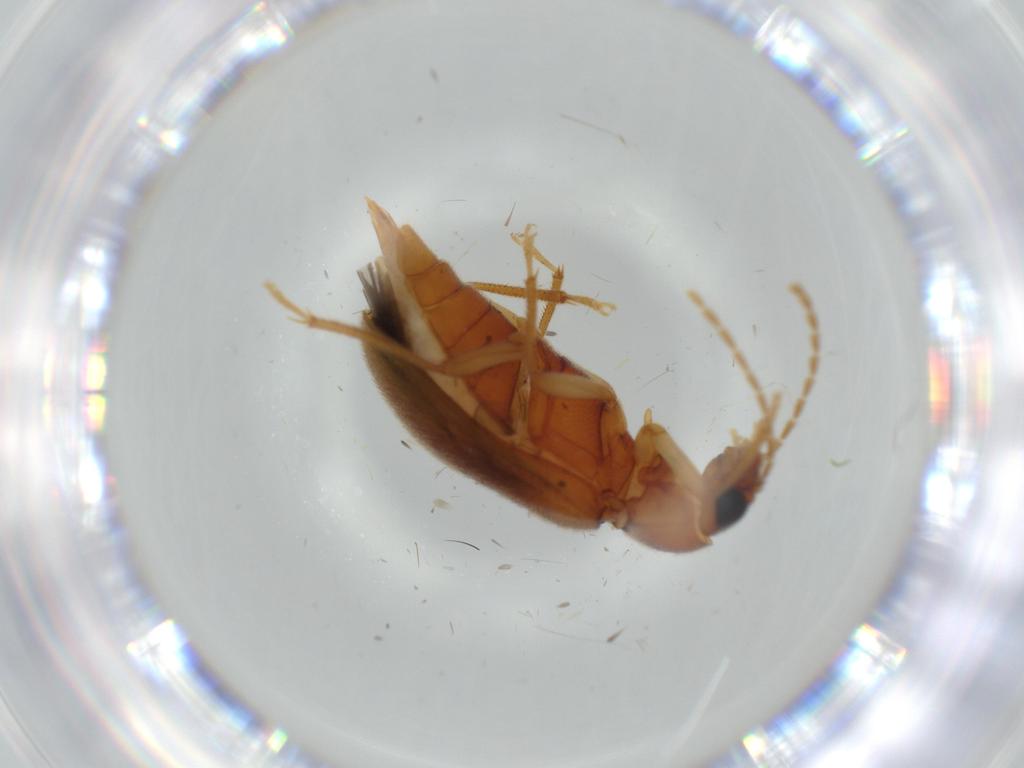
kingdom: Animalia
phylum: Arthropoda
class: Insecta
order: Coleoptera
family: Ptilodactylidae
